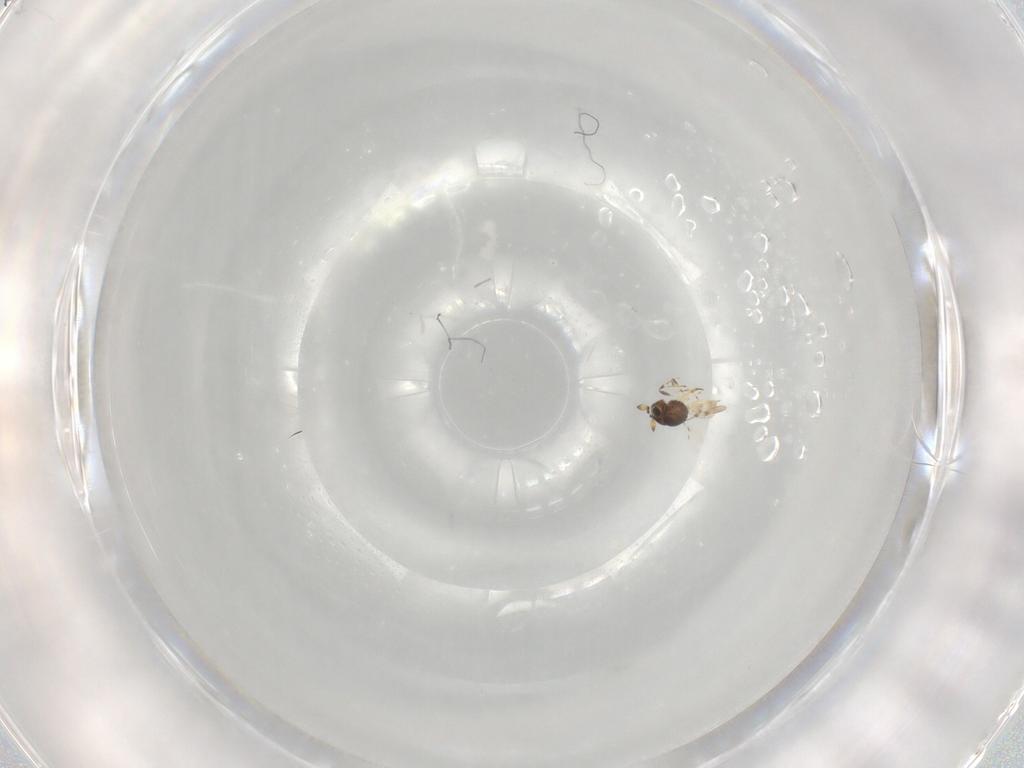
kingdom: Animalia
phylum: Arthropoda
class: Insecta
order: Hymenoptera
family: Scelionidae
